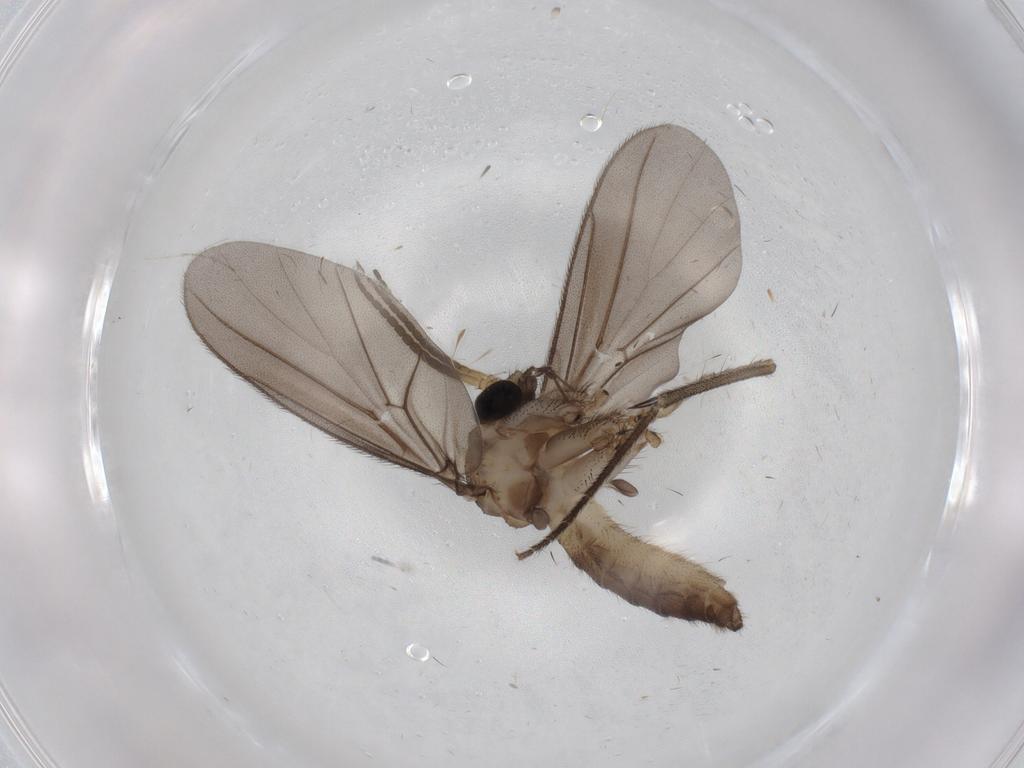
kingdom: Animalia
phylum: Arthropoda
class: Insecta
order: Diptera
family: Chironomidae
